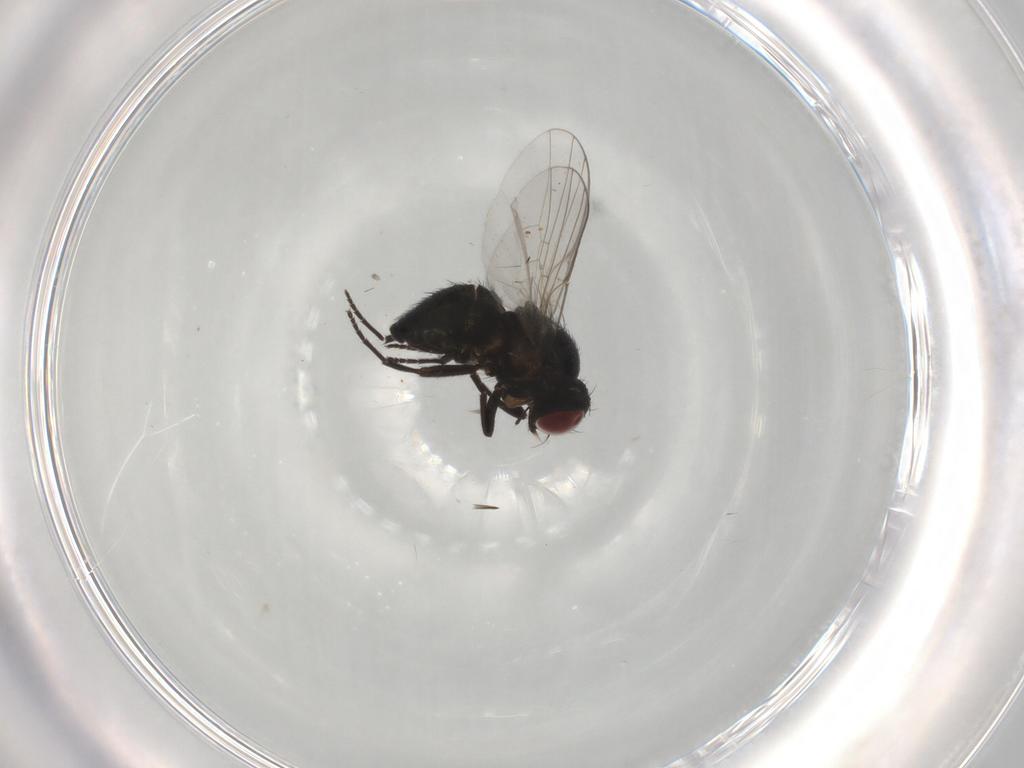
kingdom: Animalia
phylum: Arthropoda
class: Insecta
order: Diptera
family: Agromyzidae
